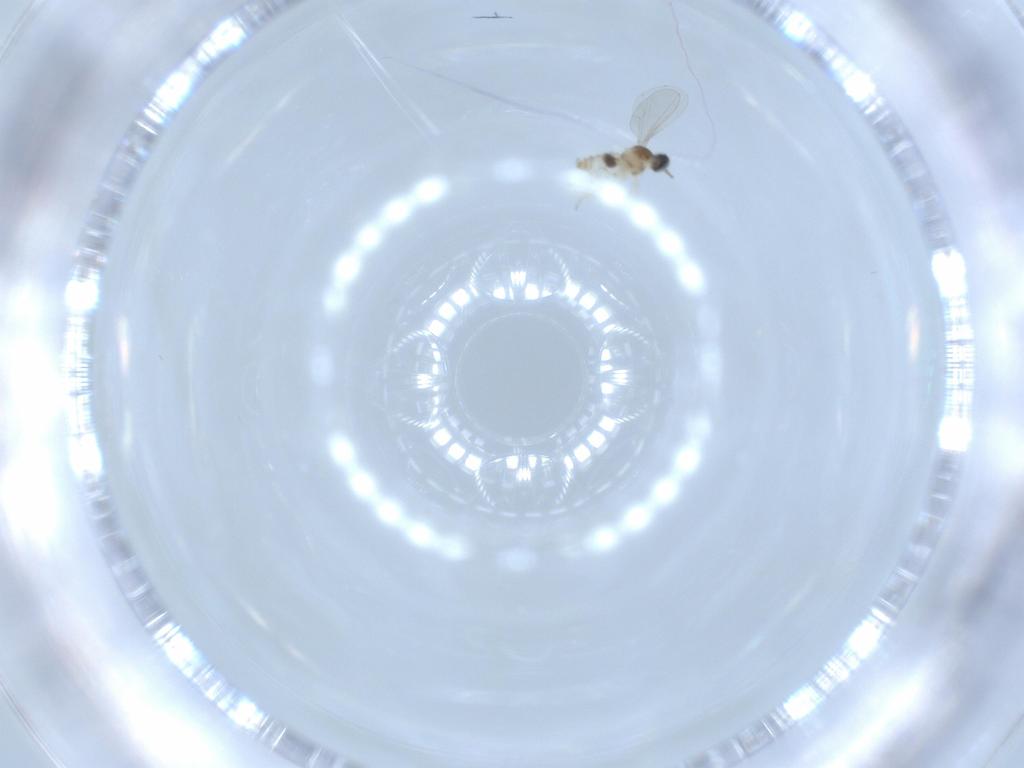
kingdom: Animalia
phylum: Arthropoda
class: Insecta
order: Diptera
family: Cecidomyiidae
